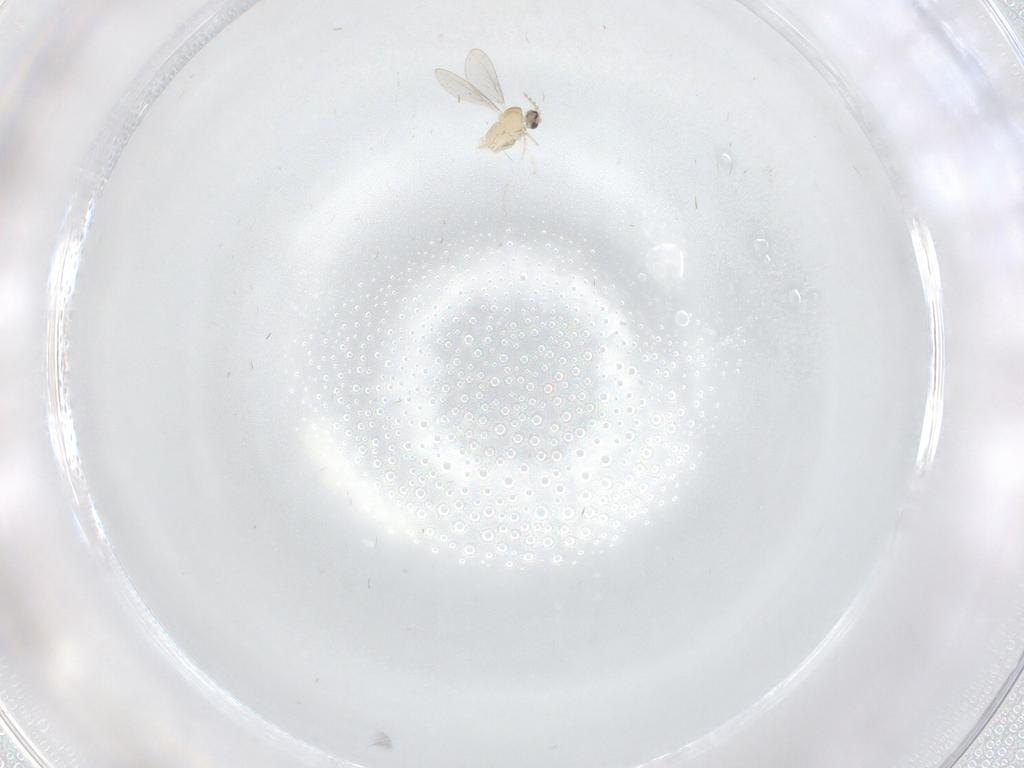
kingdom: Animalia
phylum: Arthropoda
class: Insecta
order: Diptera
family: Cecidomyiidae
